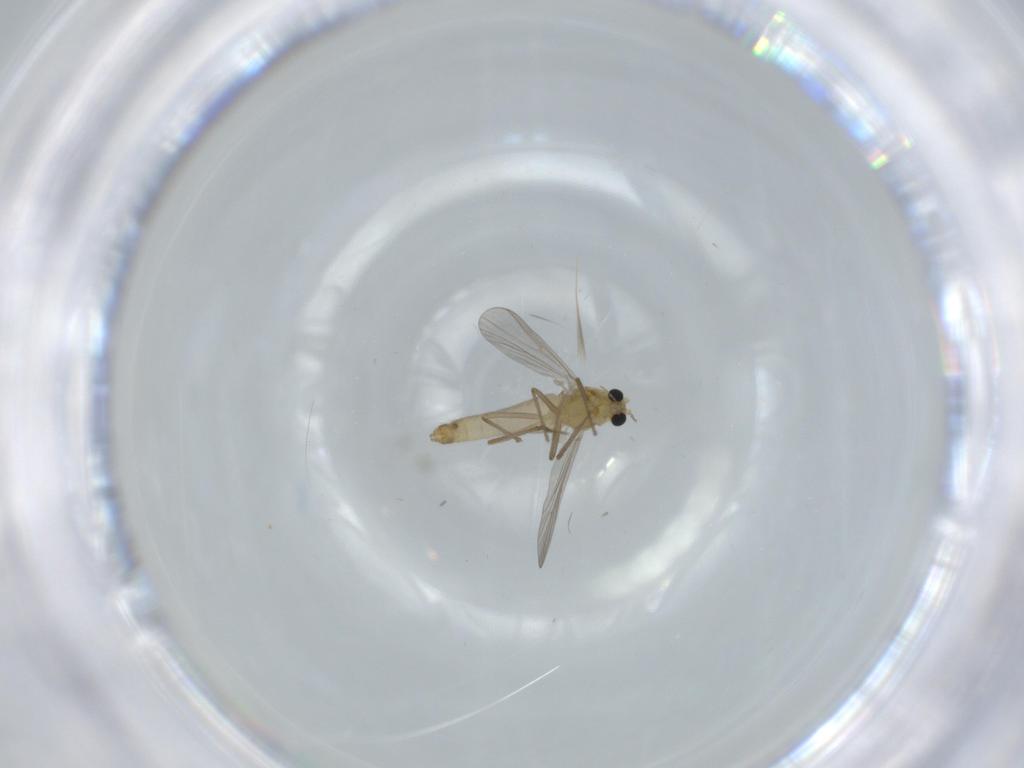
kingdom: Animalia
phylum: Arthropoda
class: Insecta
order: Diptera
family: Chironomidae
